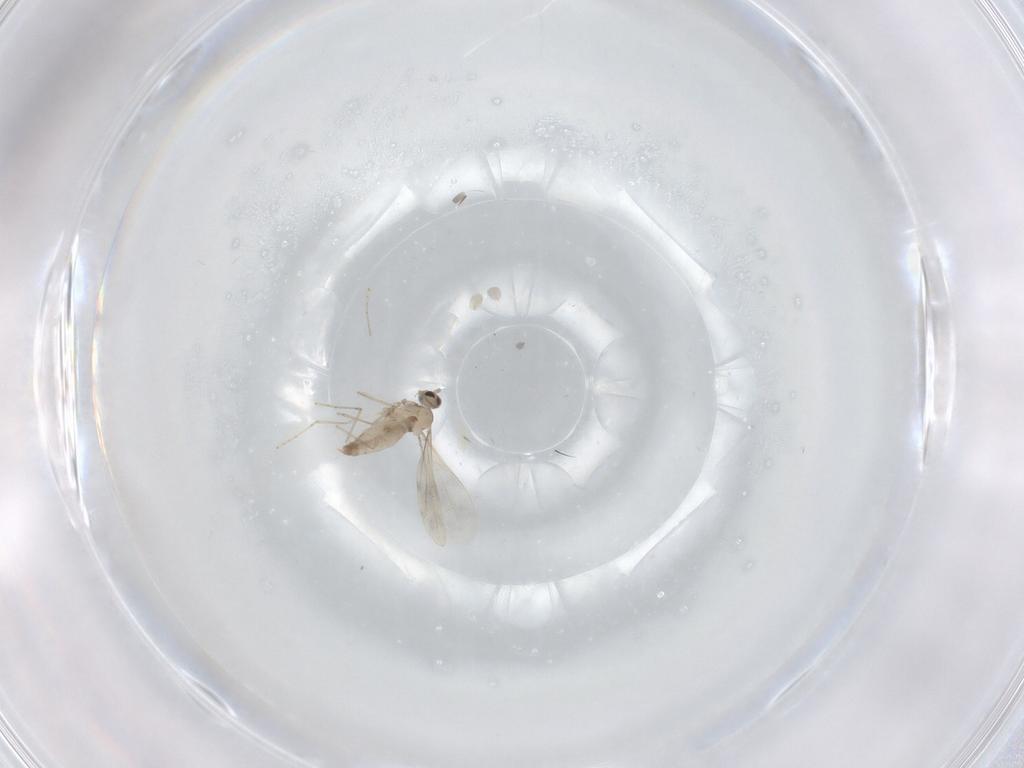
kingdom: Animalia
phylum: Arthropoda
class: Insecta
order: Diptera
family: Cecidomyiidae
